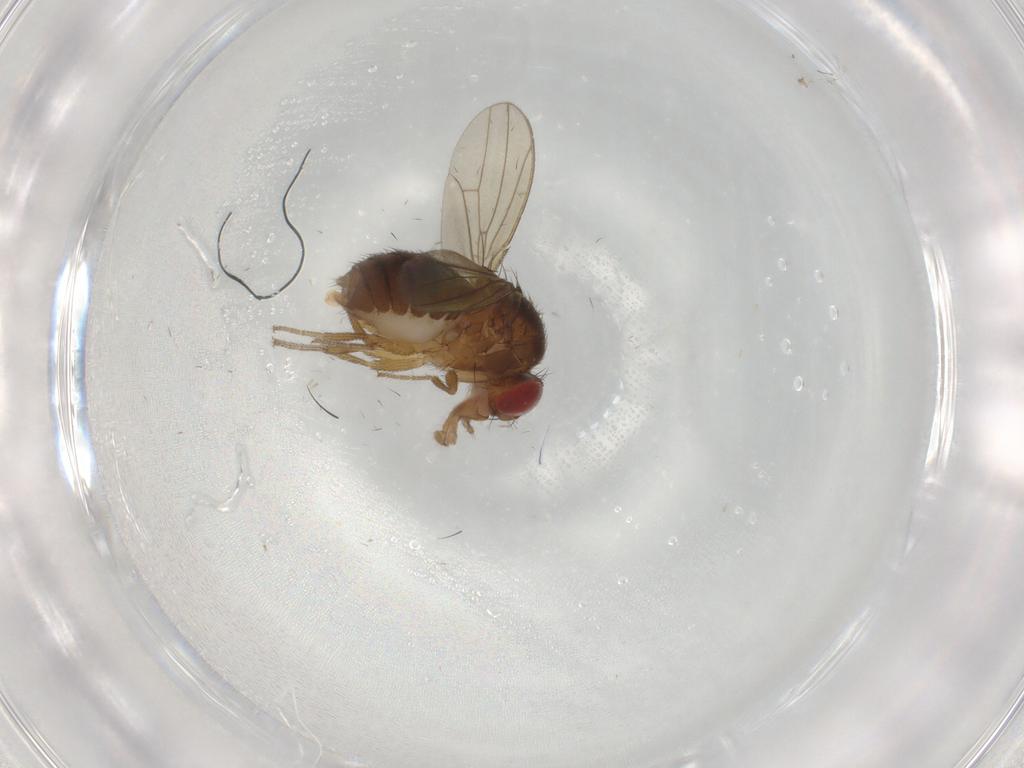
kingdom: Animalia
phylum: Arthropoda
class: Insecta
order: Diptera
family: Drosophilidae
